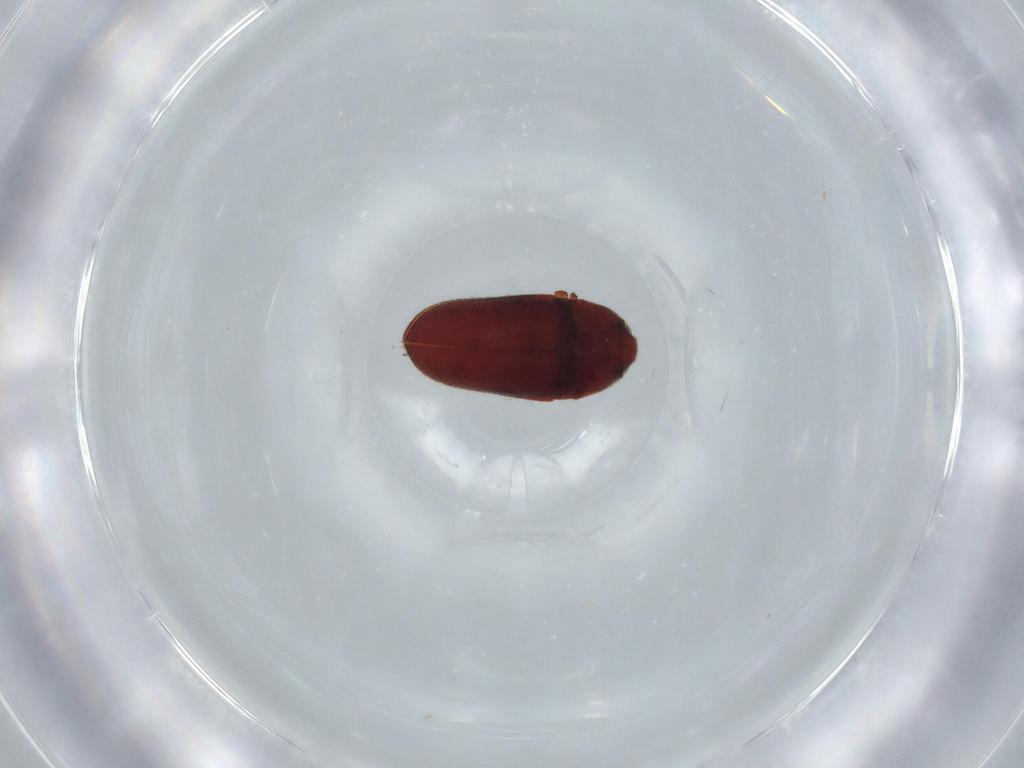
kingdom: Animalia
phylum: Arthropoda
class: Insecta
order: Coleoptera
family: Throscidae
